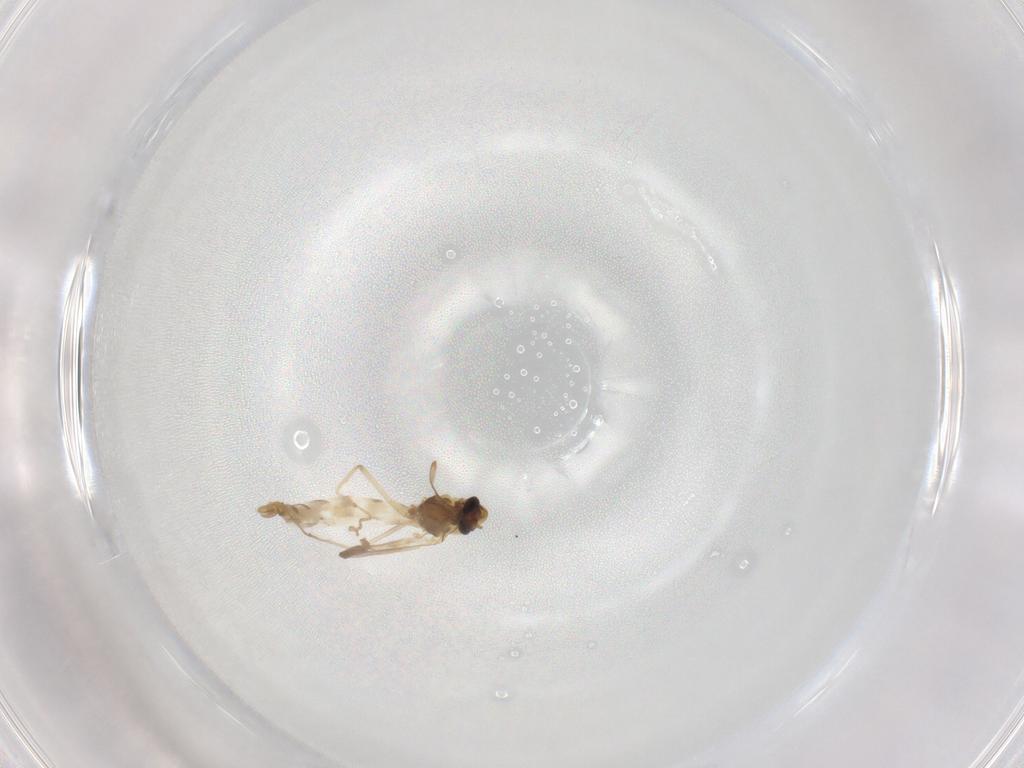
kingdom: Animalia
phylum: Arthropoda
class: Insecta
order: Diptera
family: Chironomidae
